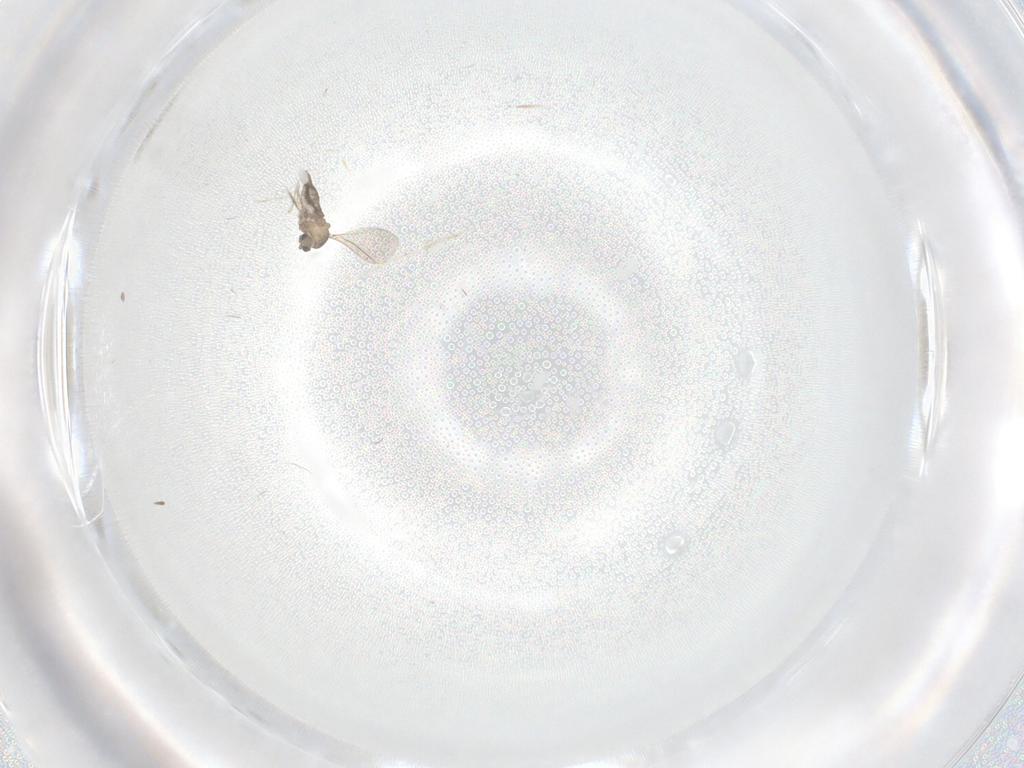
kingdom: Animalia
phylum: Arthropoda
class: Insecta
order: Diptera
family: Cecidomyiidae
